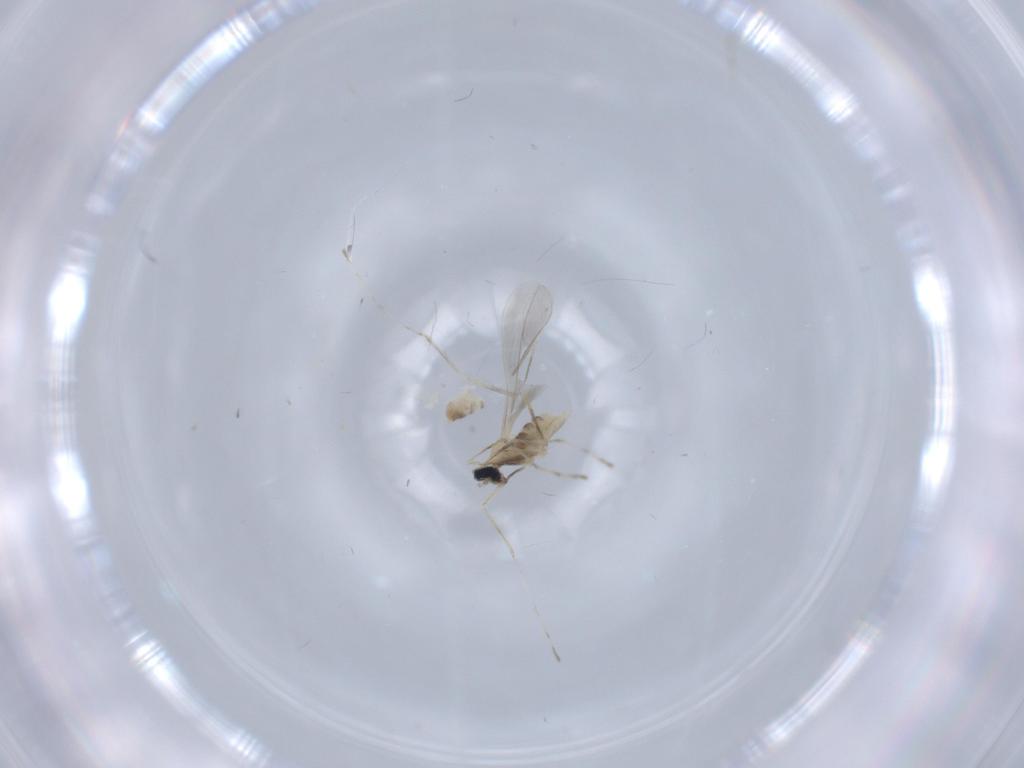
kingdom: Animalia
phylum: Arthropoda
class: Insecta
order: Diptera
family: Cecidomyiidae
